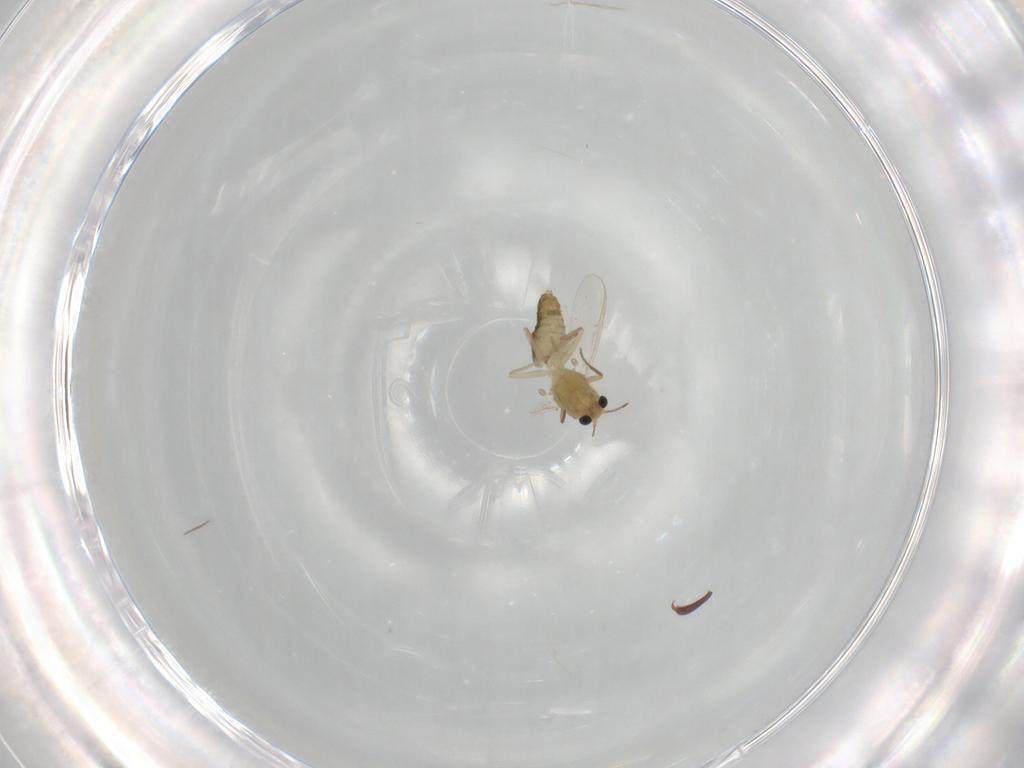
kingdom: Animalia
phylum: Arthropoda
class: Insecta
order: Diptera
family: Chironomidae
